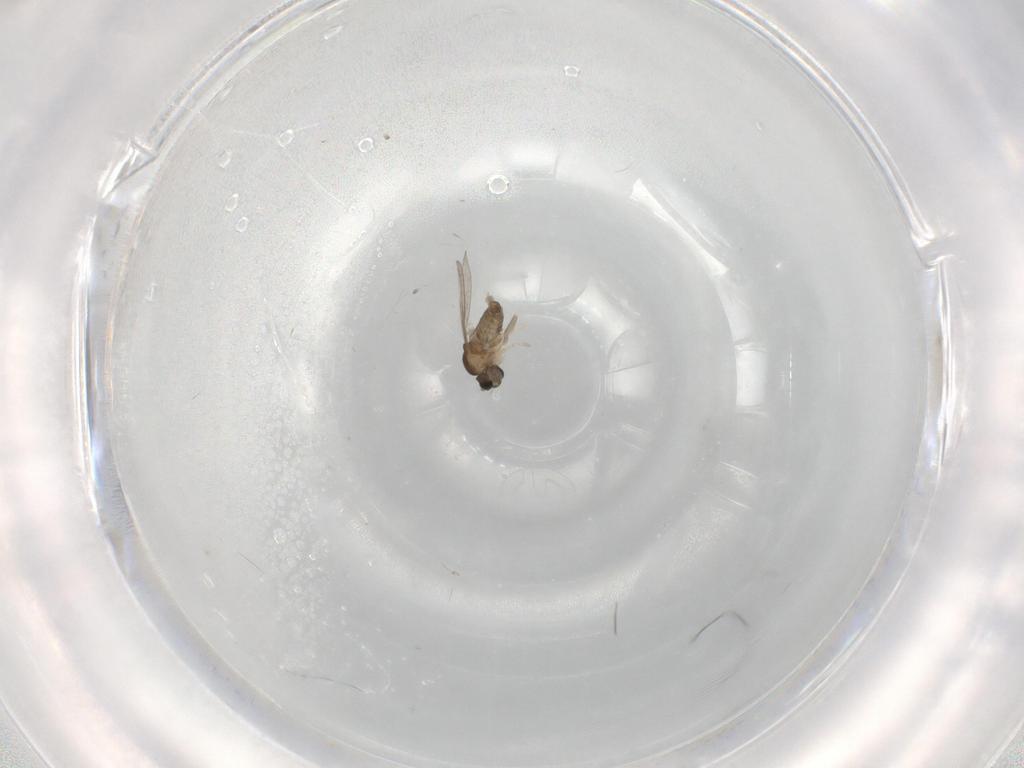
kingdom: Animalia
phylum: Arthropoda
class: Insecta
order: Diptera
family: Cecidomyiidae
